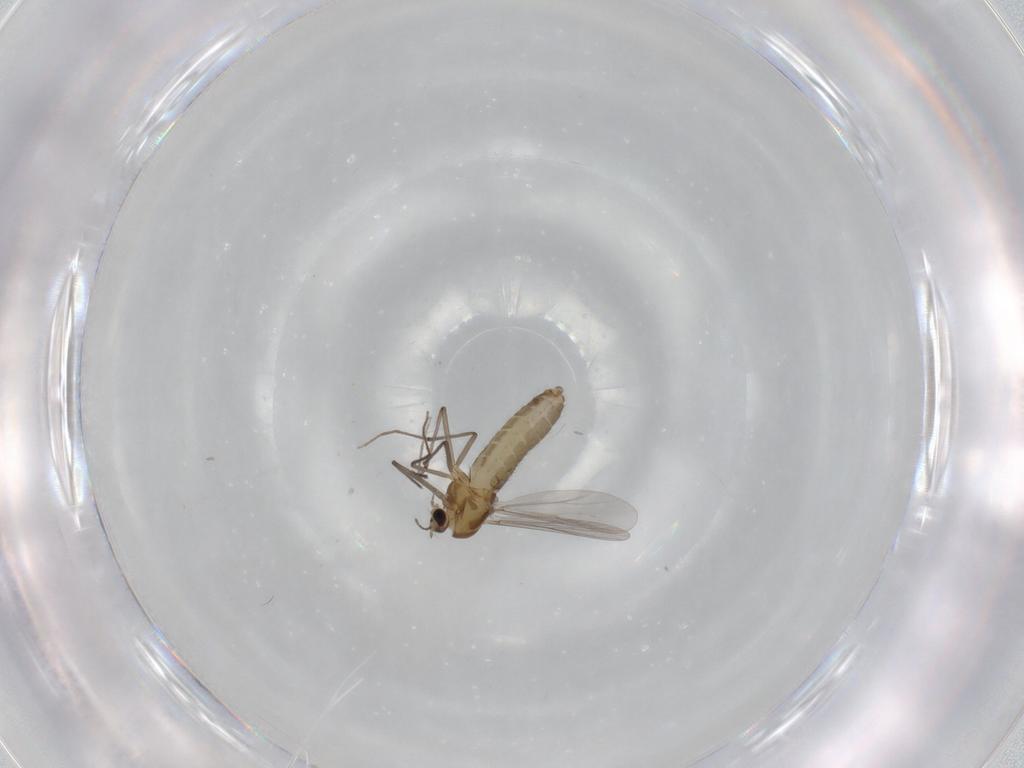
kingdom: Animalia
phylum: Arthropoda
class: Insecta
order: Diptera
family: Chironomidae
